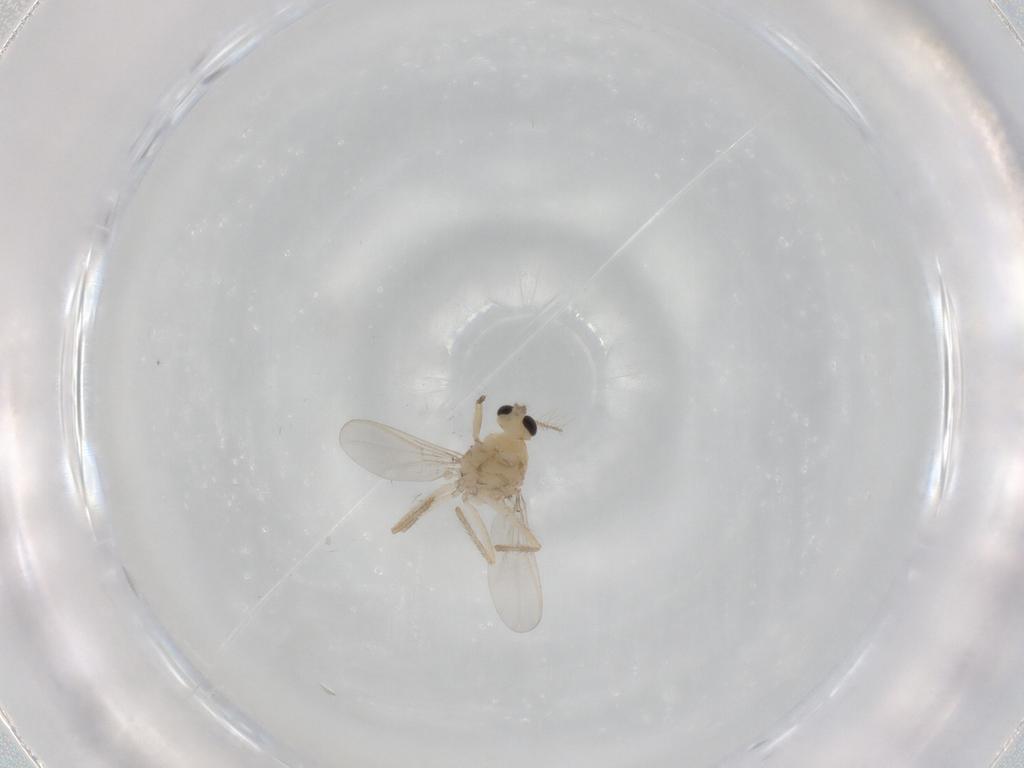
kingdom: Animalia
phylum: Arthropoda
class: Insecta
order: Diptera
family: Chironomidae
